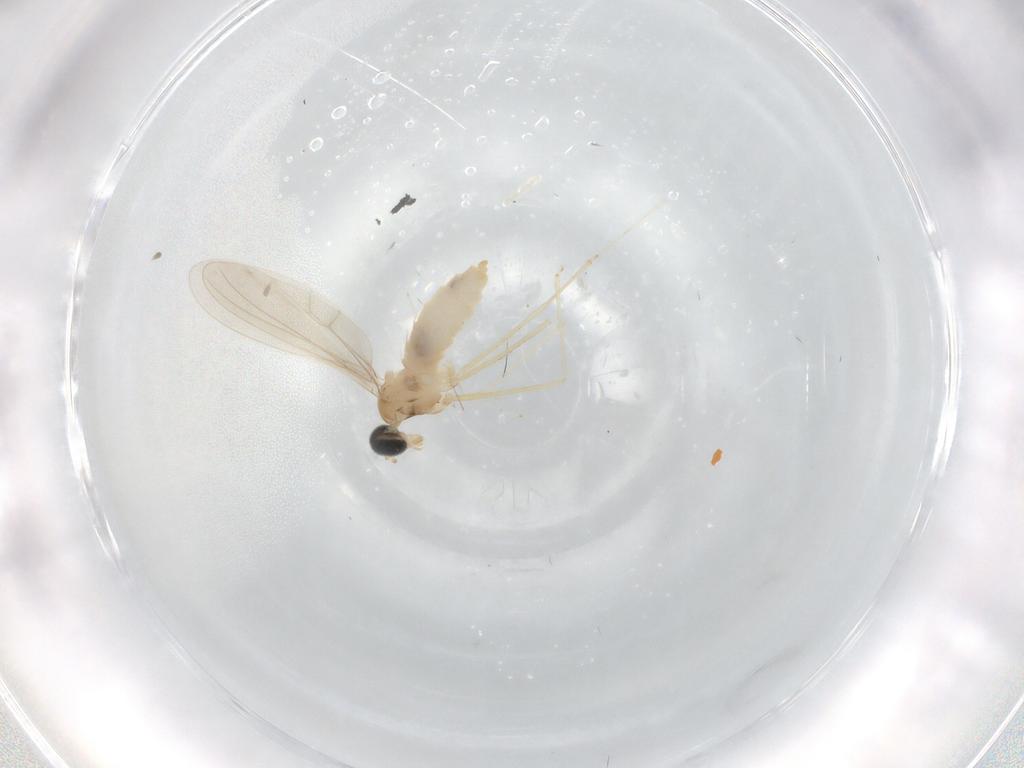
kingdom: Animalia
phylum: Arthropoda
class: Insecta
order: Diptera
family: Cecidomyiidae
